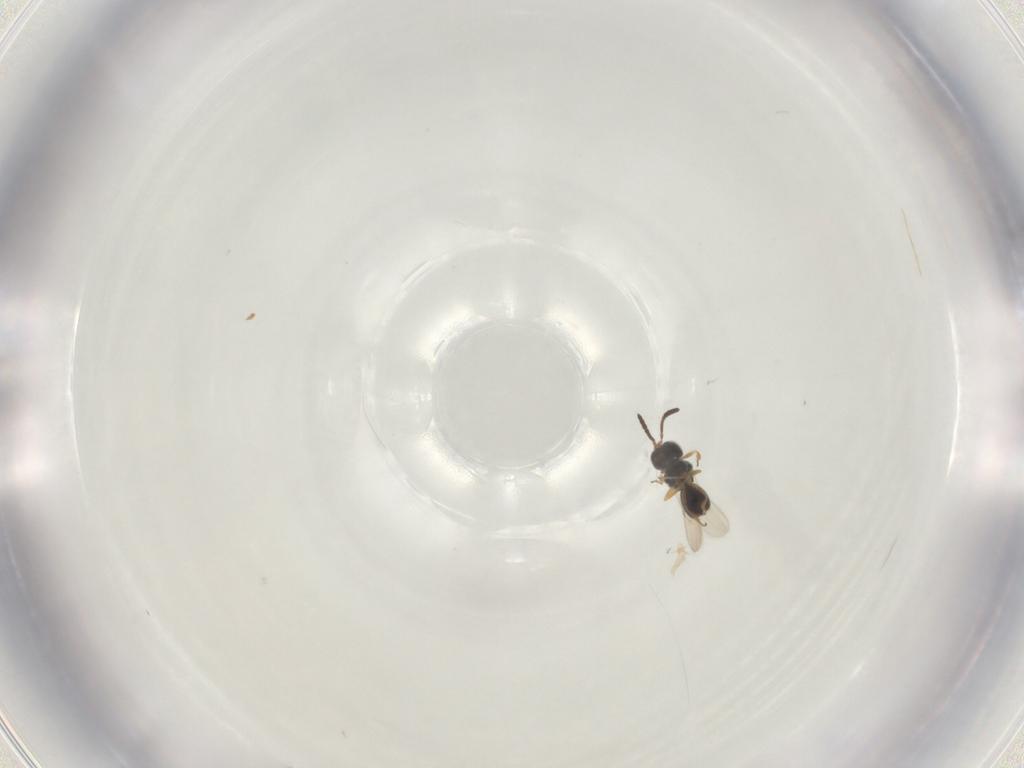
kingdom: Animalia
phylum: Arthropoda
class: Insecta
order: Hymenoptera
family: Scelionidae
